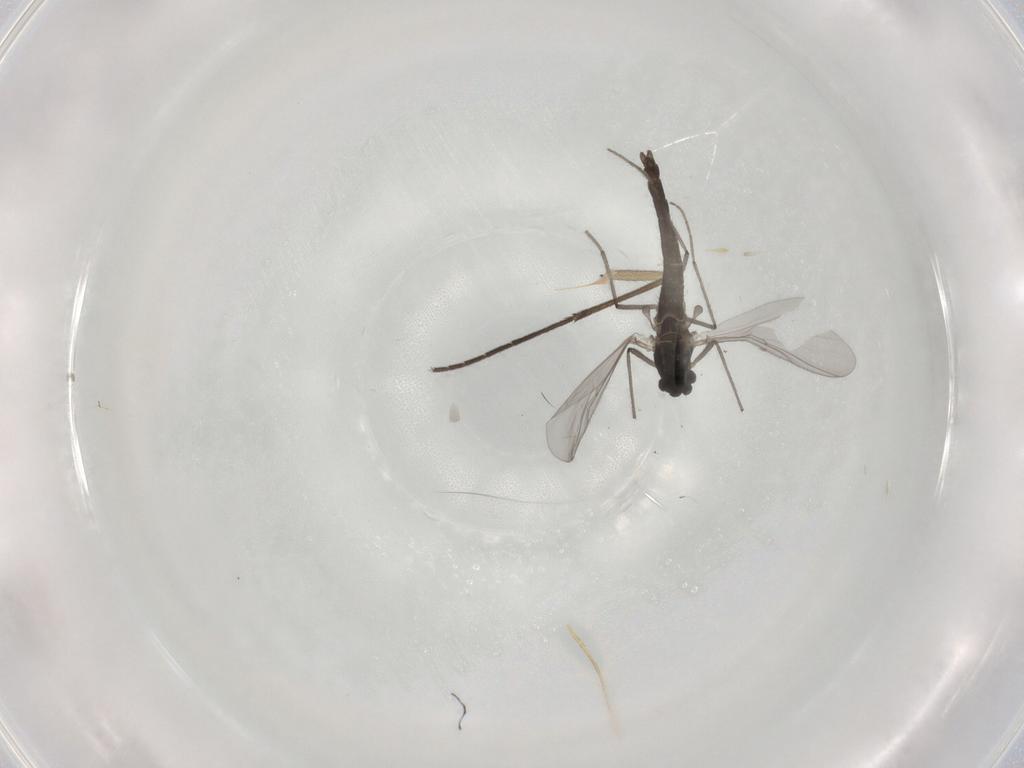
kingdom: Animalia
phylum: Arthropoda
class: Insecta
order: Diptera
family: Chironomidae
